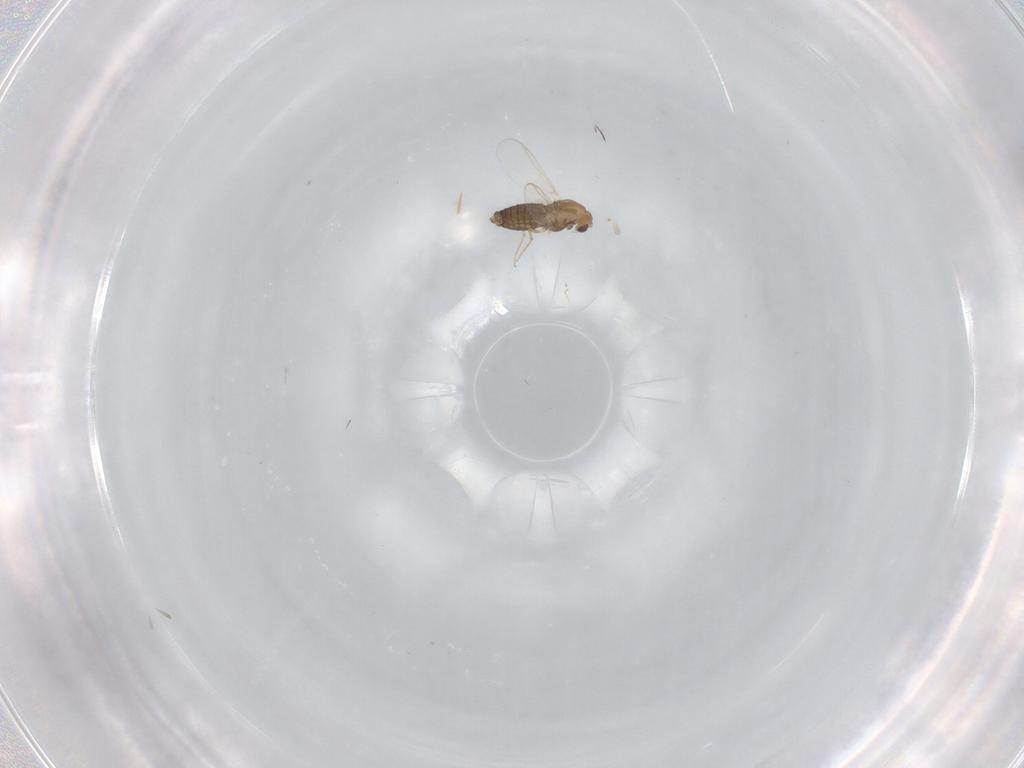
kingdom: Animalia
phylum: Arthropoda
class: Insecta
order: Diptera
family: Chironomidae
